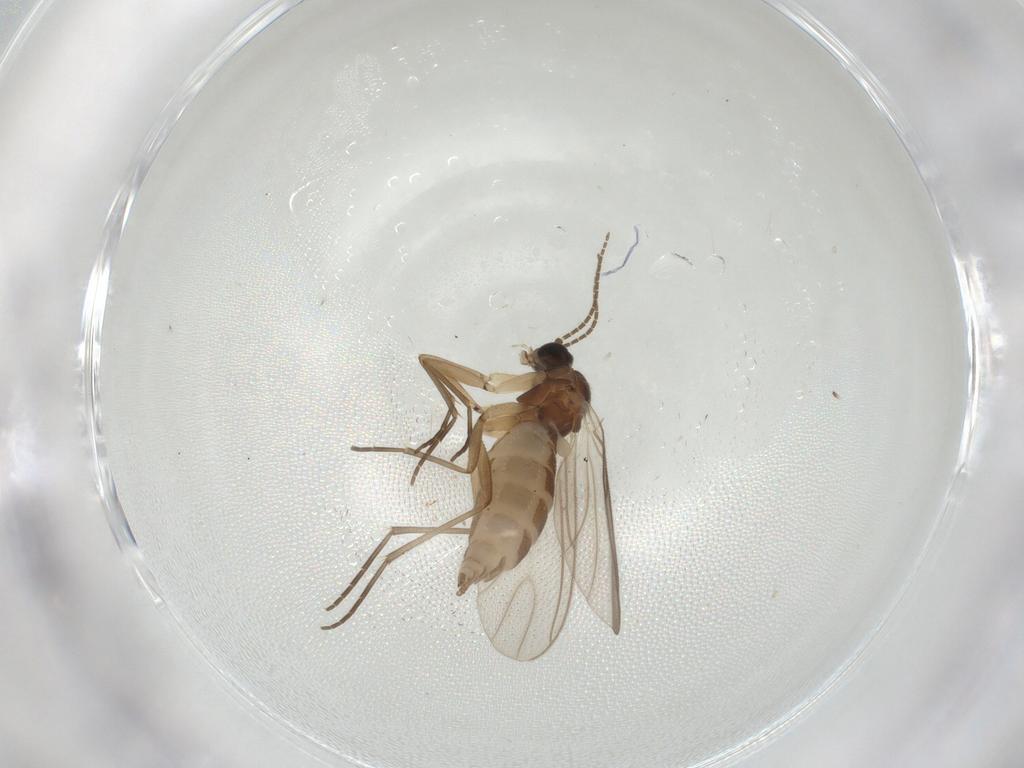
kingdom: Animalia
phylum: Arthropoda
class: Insecta
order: Diptera
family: Sciaridae
